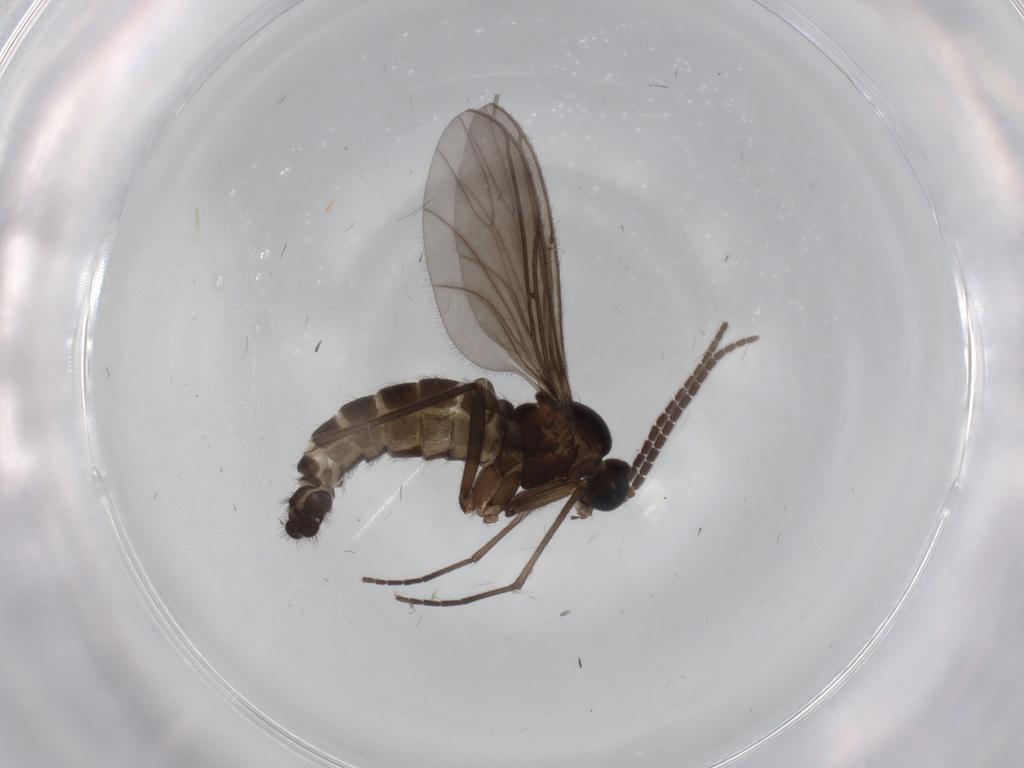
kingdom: Animalia
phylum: Arthropoda
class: Insecta
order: Diptera
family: Sciaridae
